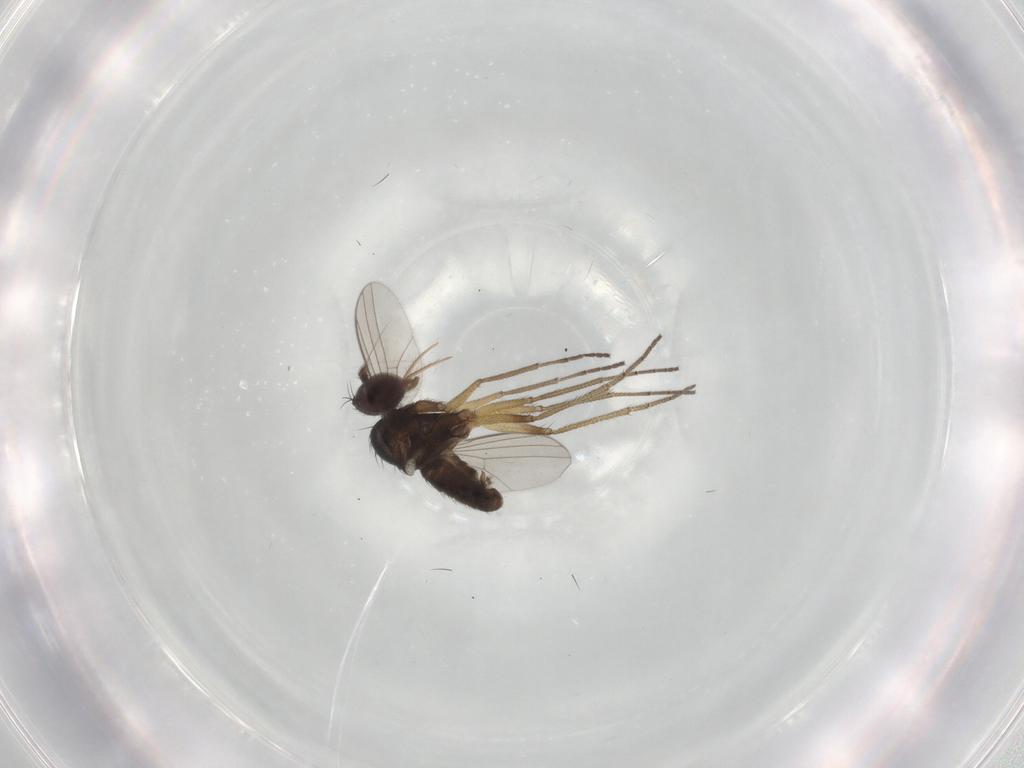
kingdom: Animalia
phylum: Arthropoda
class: Insecta
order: Diptera
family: Dolichopodidae
